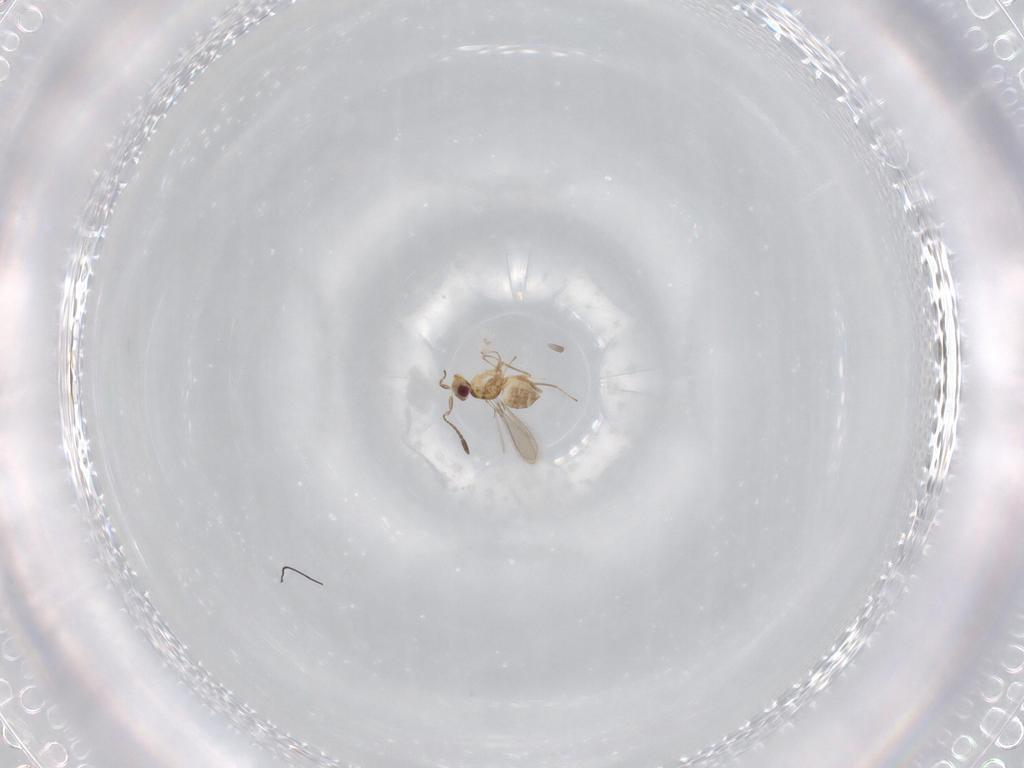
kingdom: Animalia
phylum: Arthropoda
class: Insecta
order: Hymenoptera
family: Mymaridae
